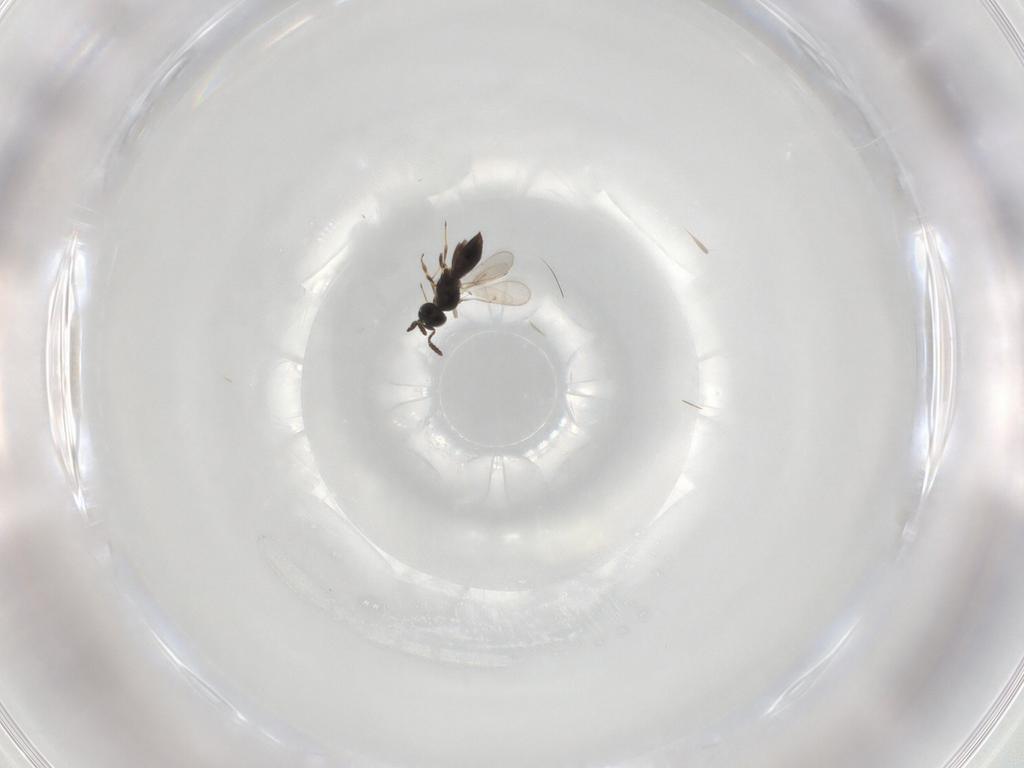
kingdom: Animalia
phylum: Arthropoda
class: Insecta
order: Hymenoptera
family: Scelionidae
